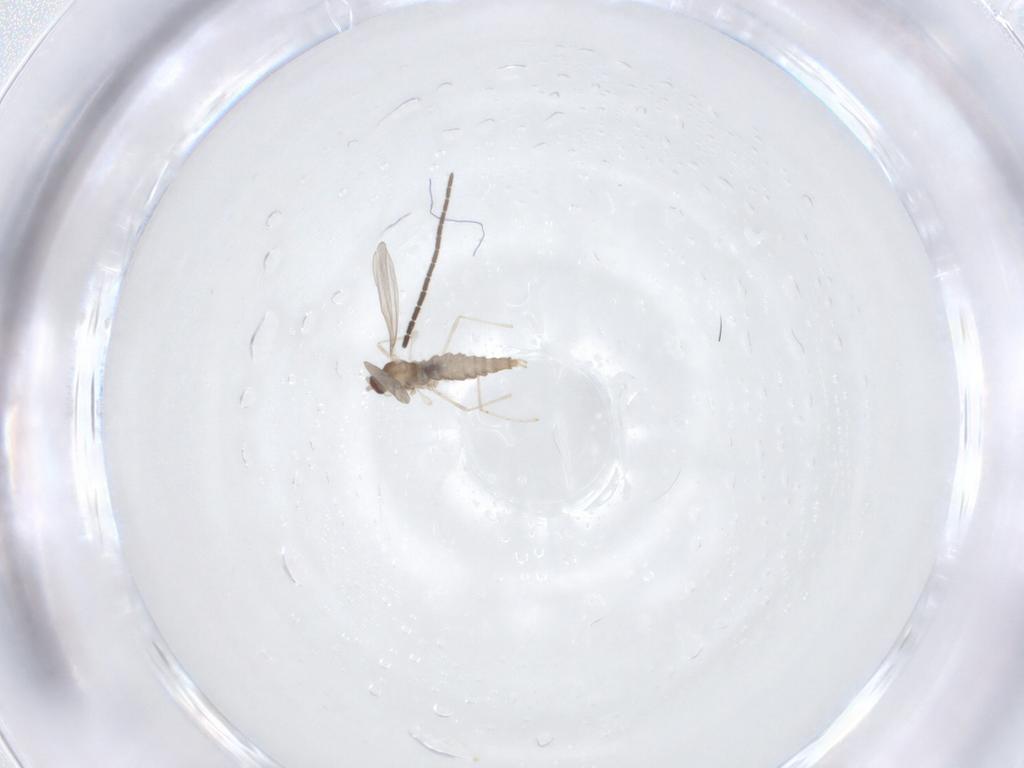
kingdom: Animalia
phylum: Arthropoda
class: Insecta
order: Diptera
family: Cecidomyiidae
